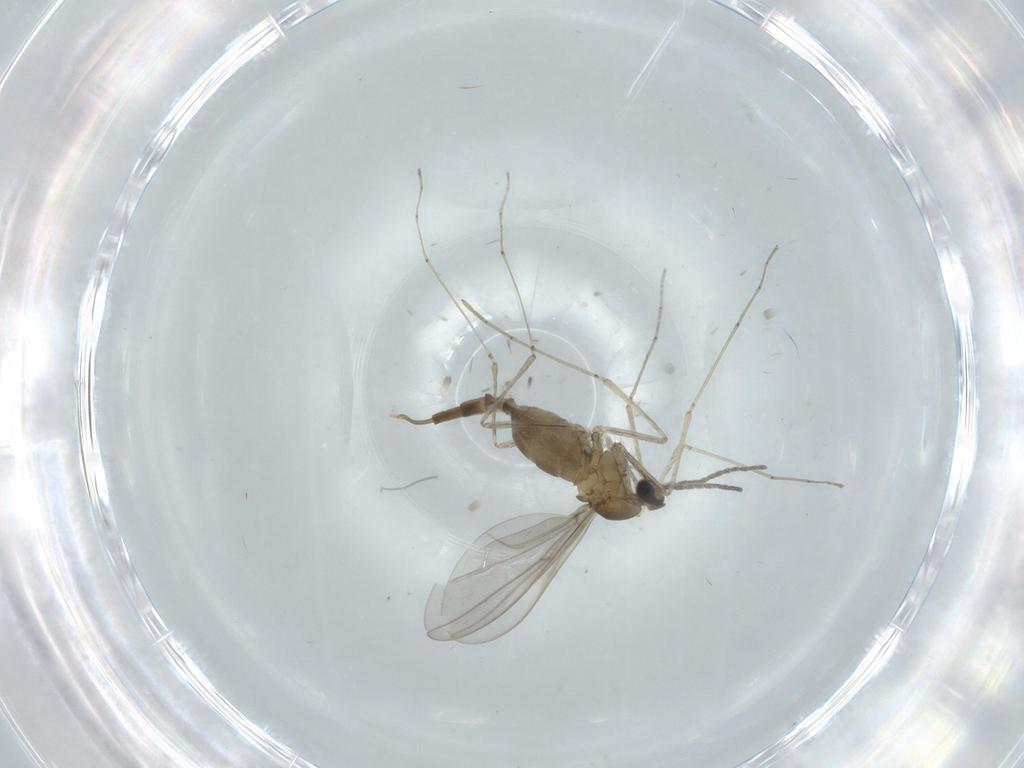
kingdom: Animalia
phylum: Arthropoda
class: Insecta
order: Diptera
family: Cecidomyiidae
